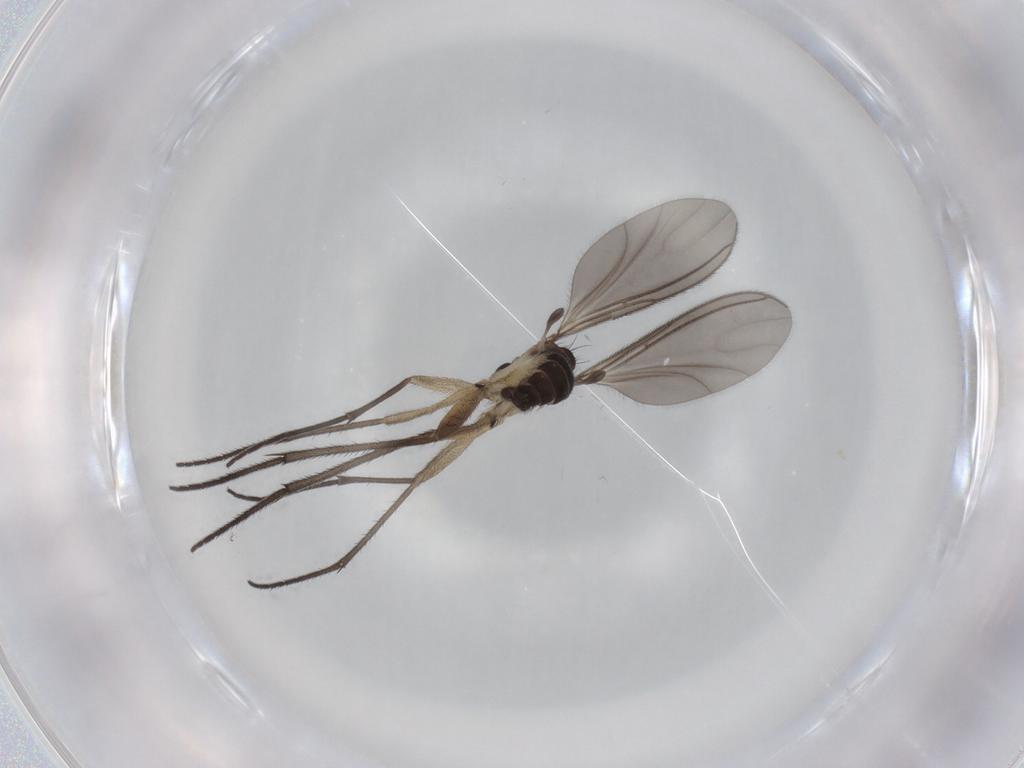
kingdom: Animalia
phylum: Arthropoda
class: Insecta
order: Diptera
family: Sciaridae
